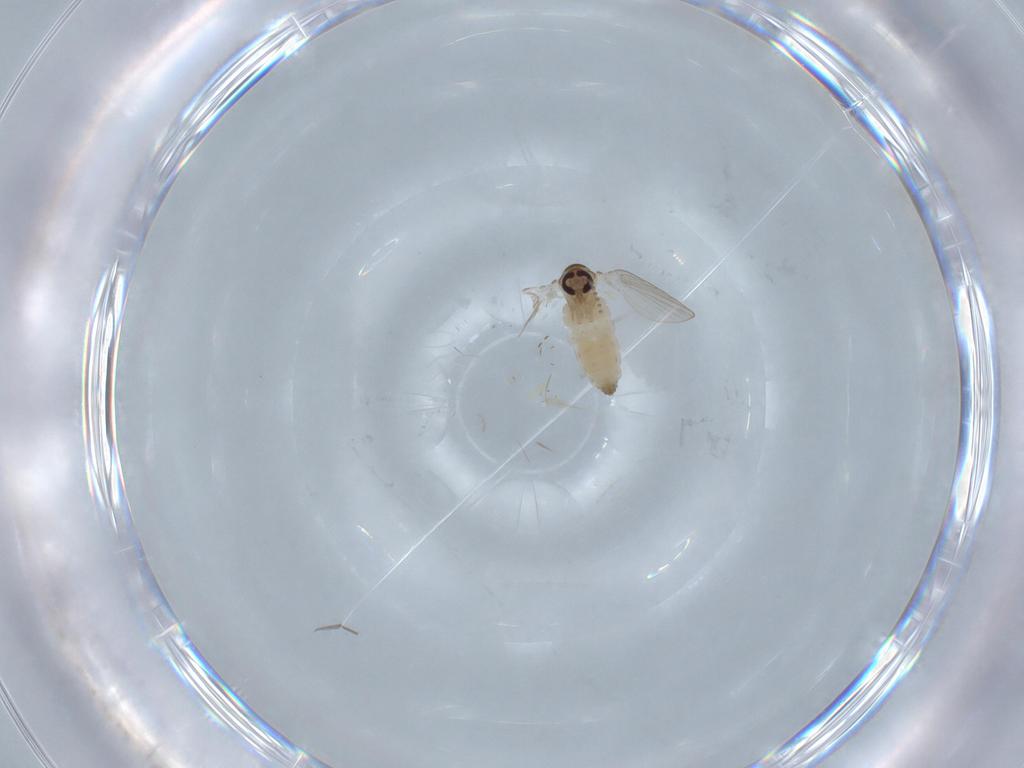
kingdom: Animalia
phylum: Arthropoda
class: Insecta
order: Diptera
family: Psychodidae
